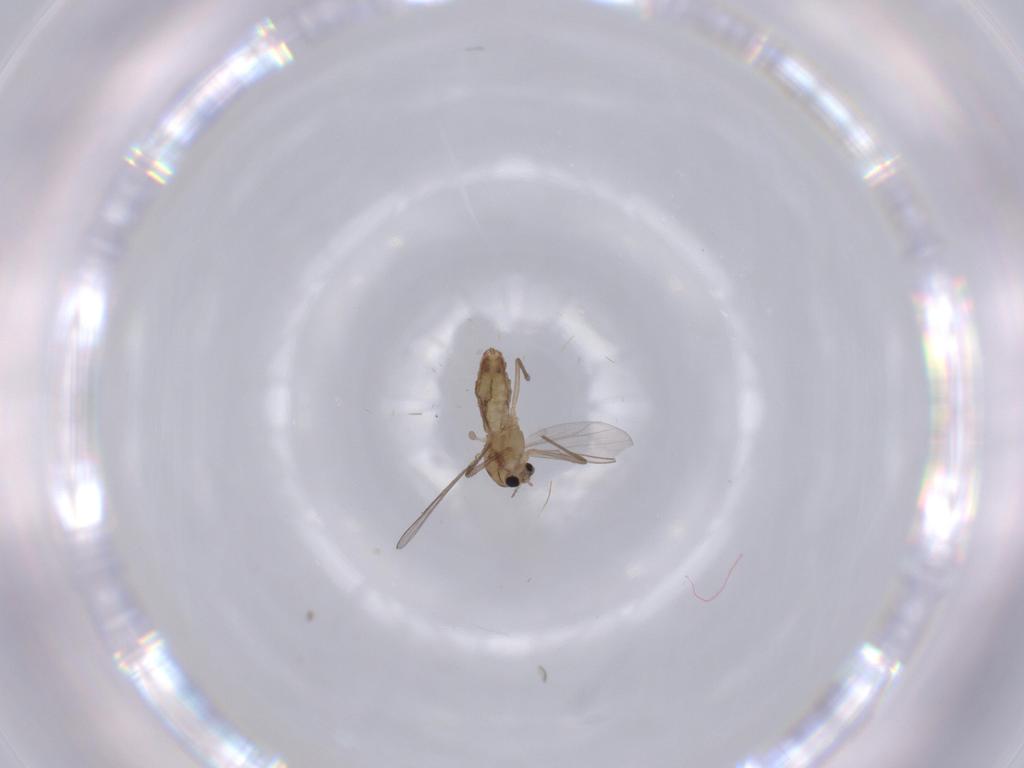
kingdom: Animalia
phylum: Arthropoda
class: Insecta
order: Diptera
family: Chironomidae
